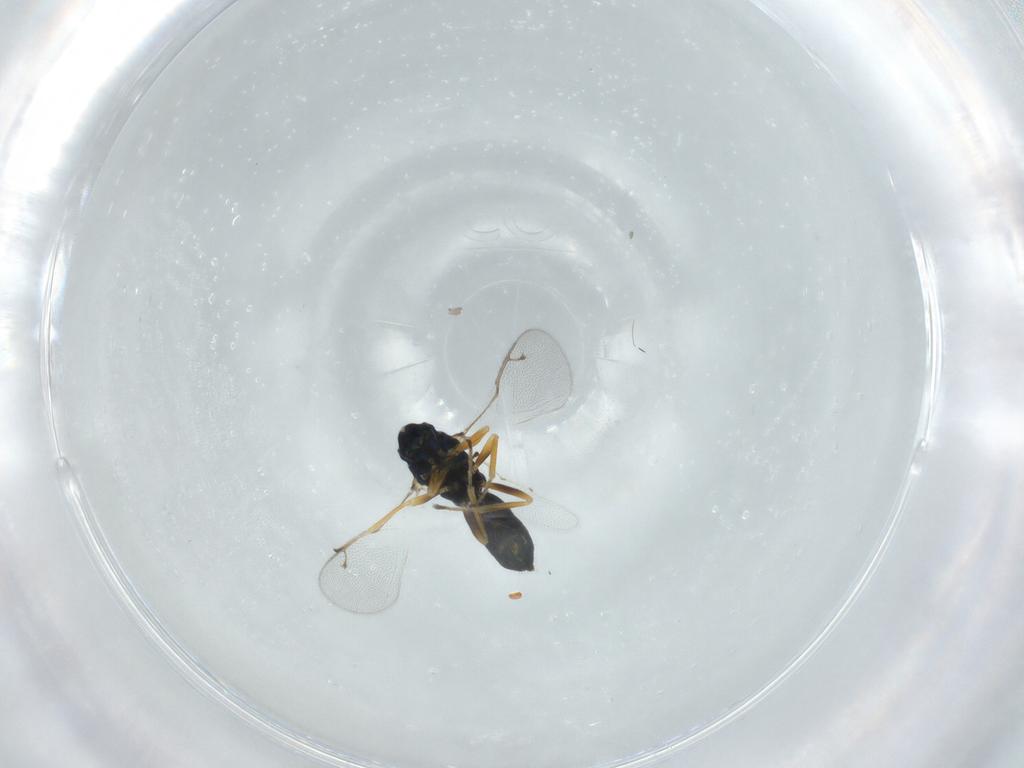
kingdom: Animalia
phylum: Arthropoda
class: Insecta
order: Hymenoptera
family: Pteromalidae
